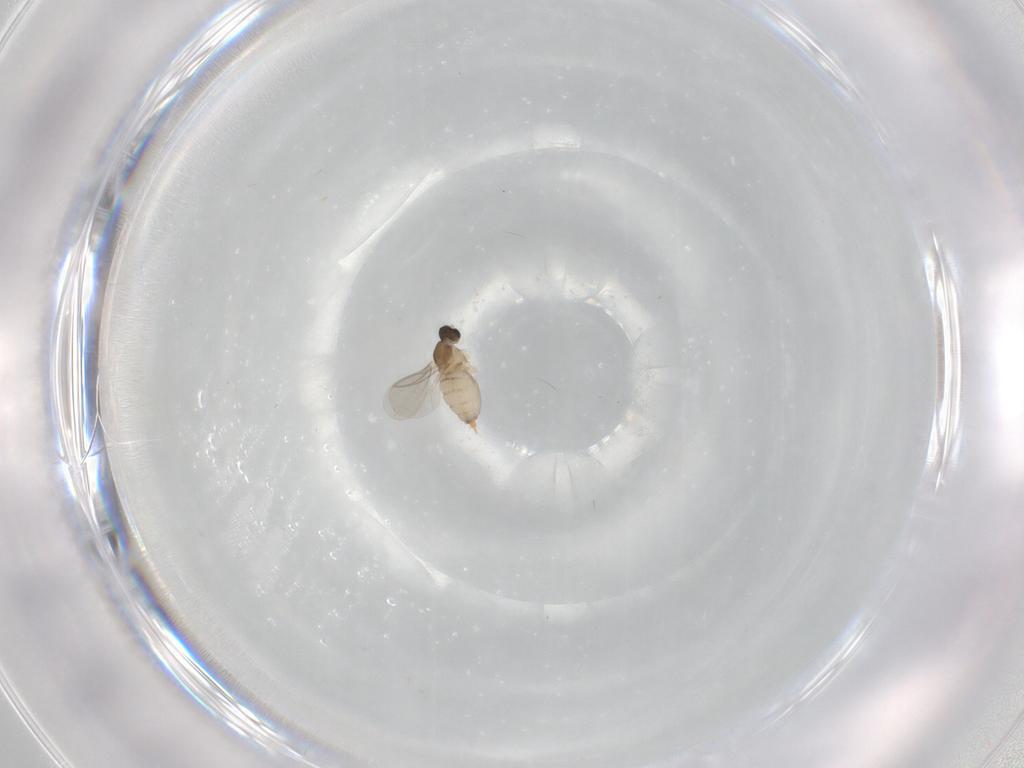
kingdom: Animalia
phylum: Arthropoda
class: Insecta
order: Diptera
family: Cecidomyiidae
